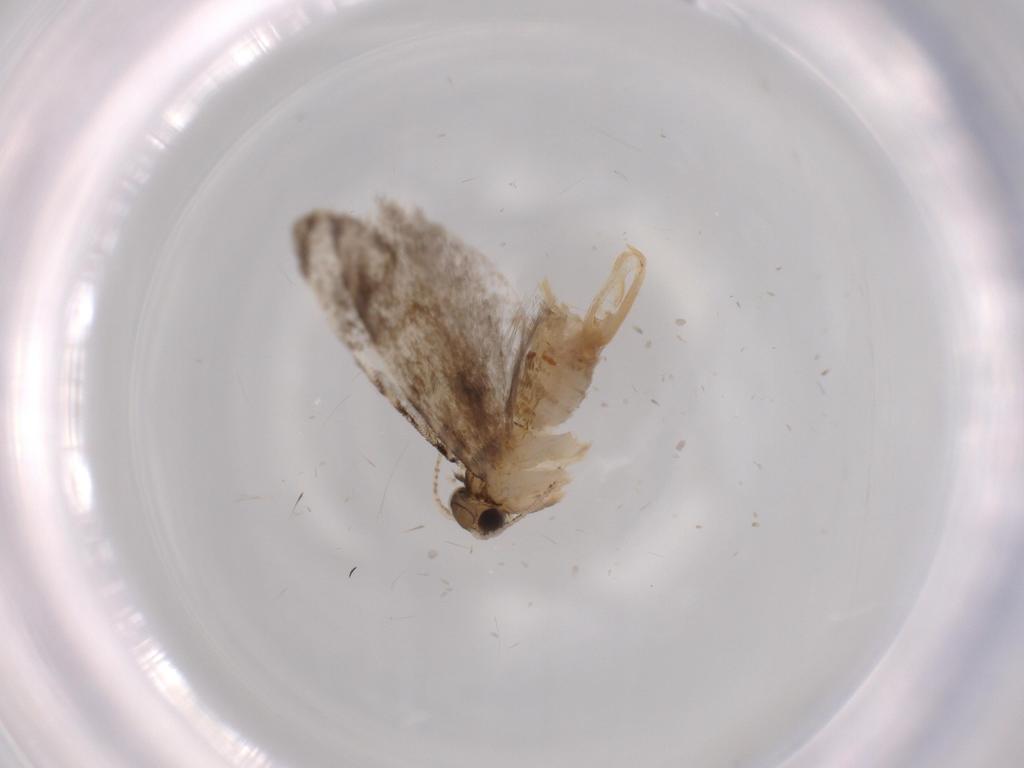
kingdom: Animalia
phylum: Arthropoda
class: Insecta
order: Lepidoptera
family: Tineidae
